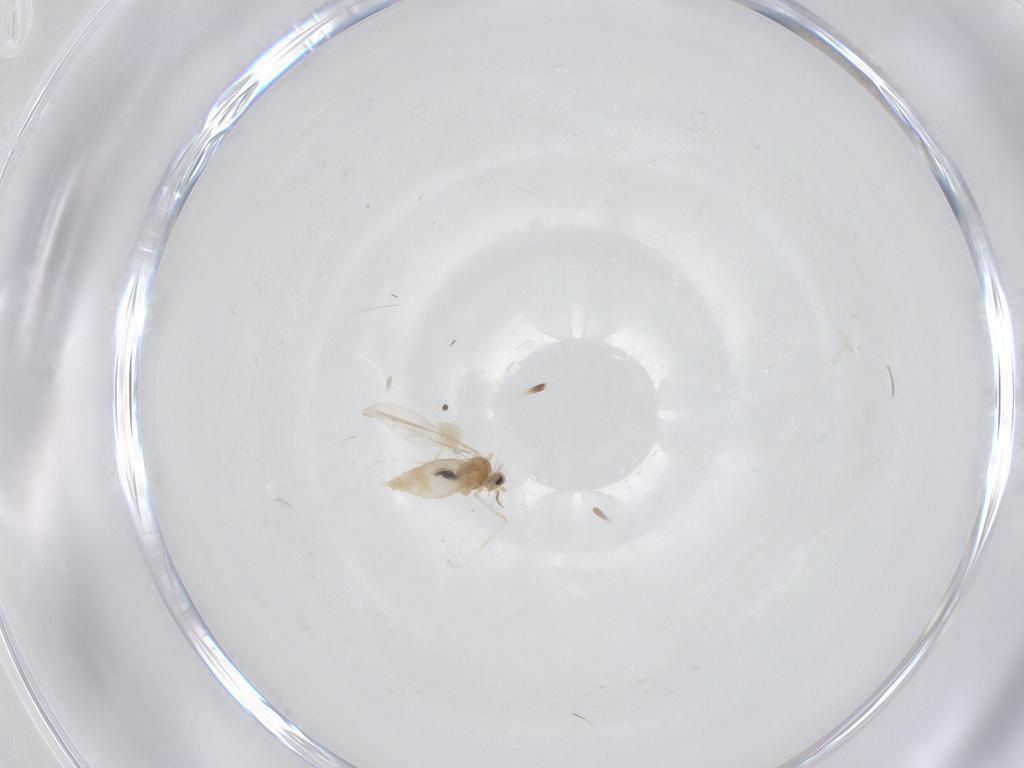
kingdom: Animalia
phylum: Arthropoda
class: Insecta
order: Diptera
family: Cecidomyiidae
